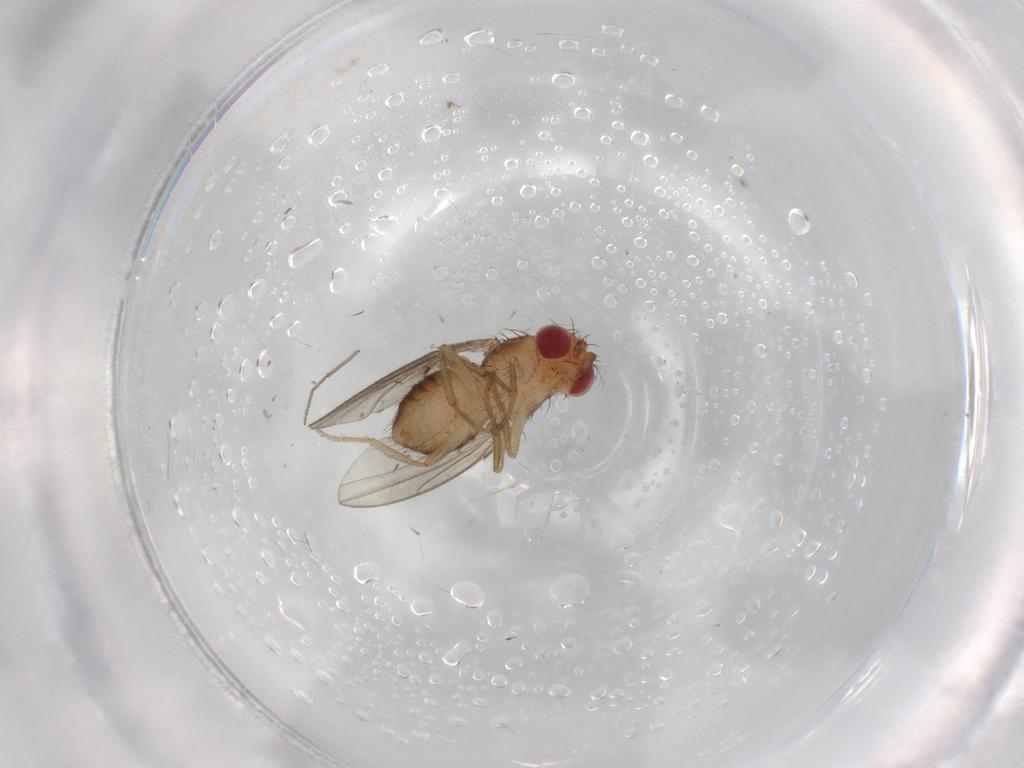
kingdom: Animalia
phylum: Arthropoda
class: Insecta
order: Diptera
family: Drosophilidae
